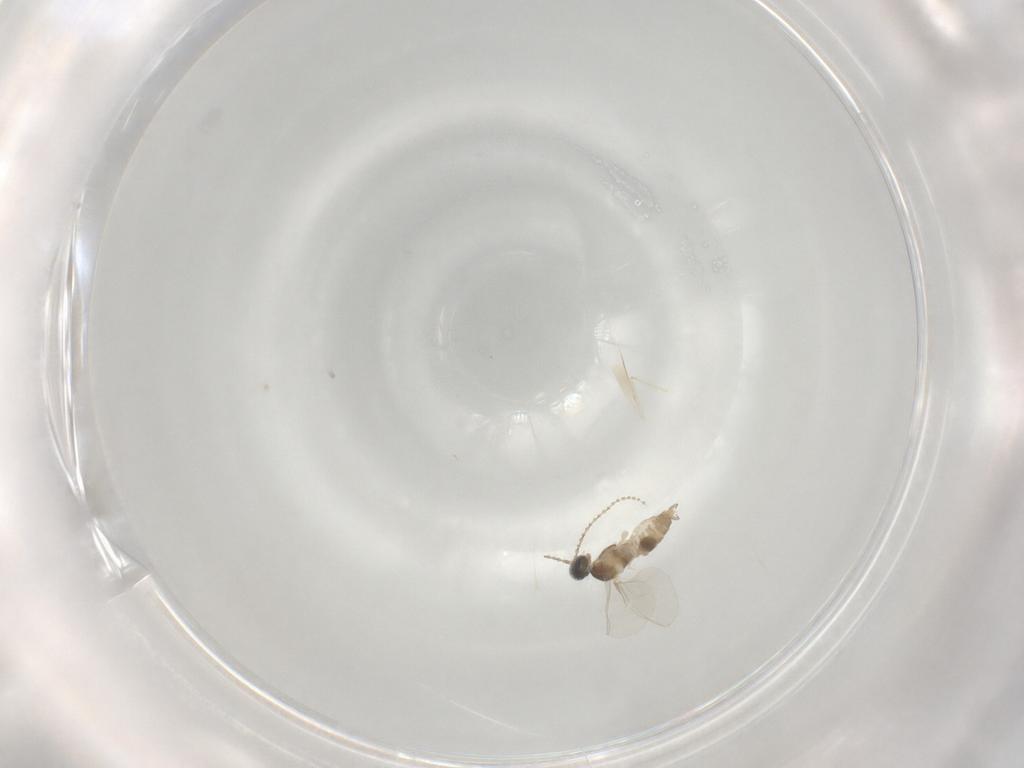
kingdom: Animalia
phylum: Arthropoda
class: Insecta
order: Diptera
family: Cecidomyiidae
